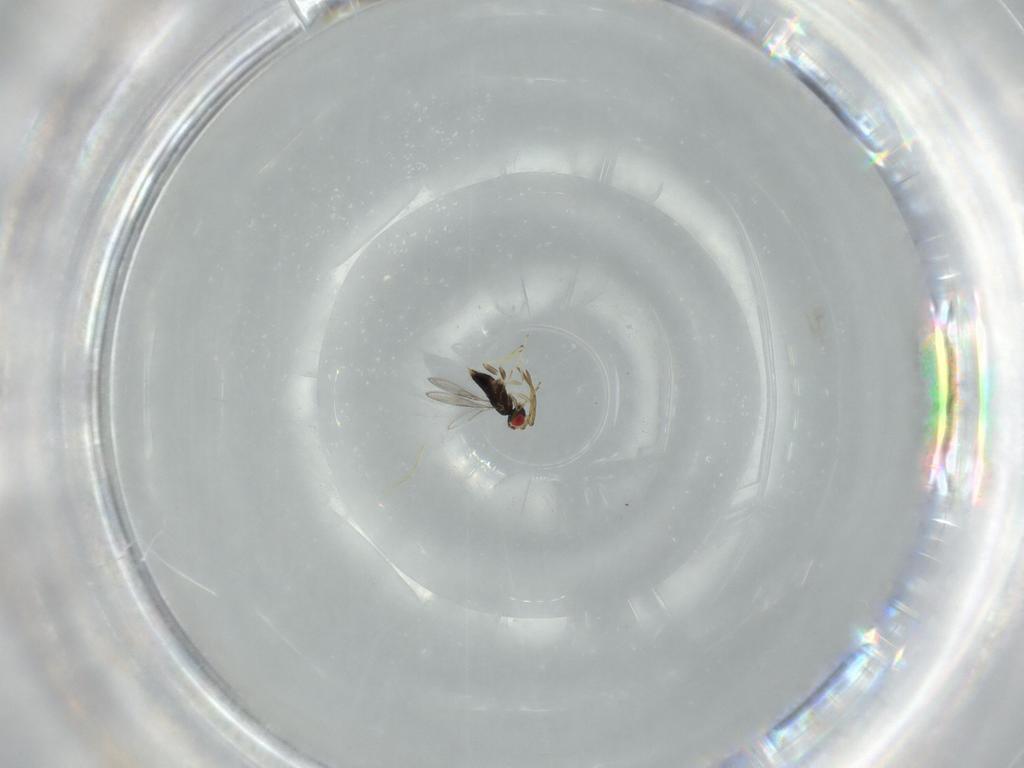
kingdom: Animalia
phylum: Arthropoda
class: Insecta
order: Hymenoptera
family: Azotidae
